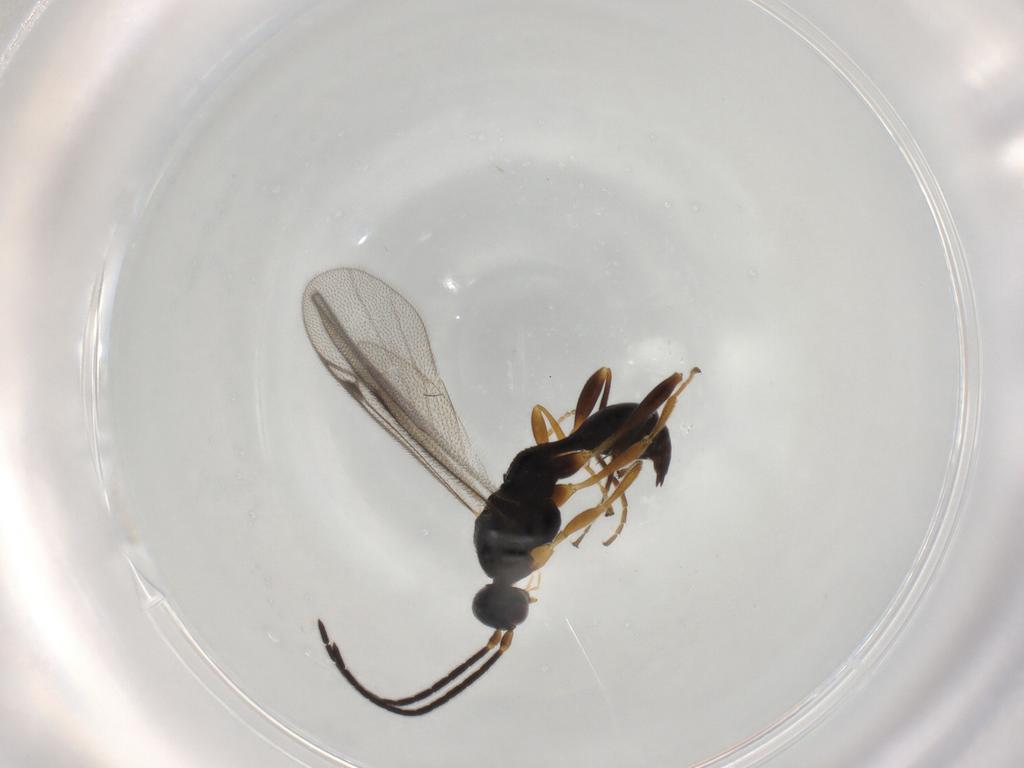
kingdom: Animalia
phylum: Arthropoda
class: Insecta
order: Hymenoptera
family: Proctotrupidae
